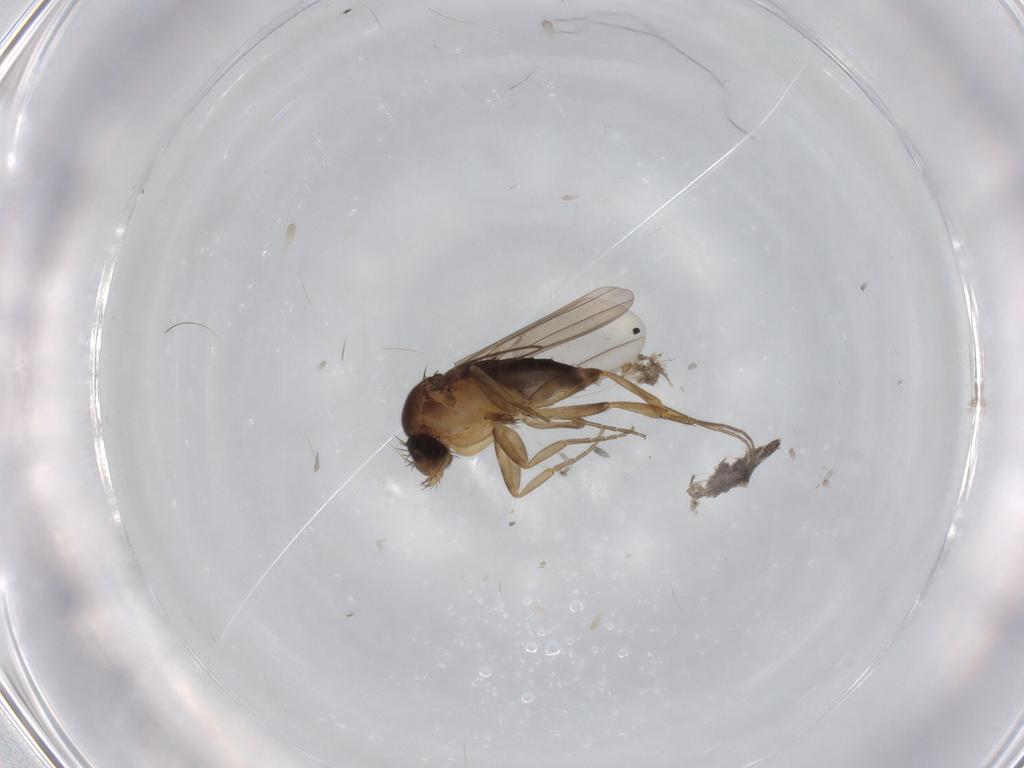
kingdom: Animalia
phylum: Arthropoda
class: Insecta
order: Diptera
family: Phoridae
